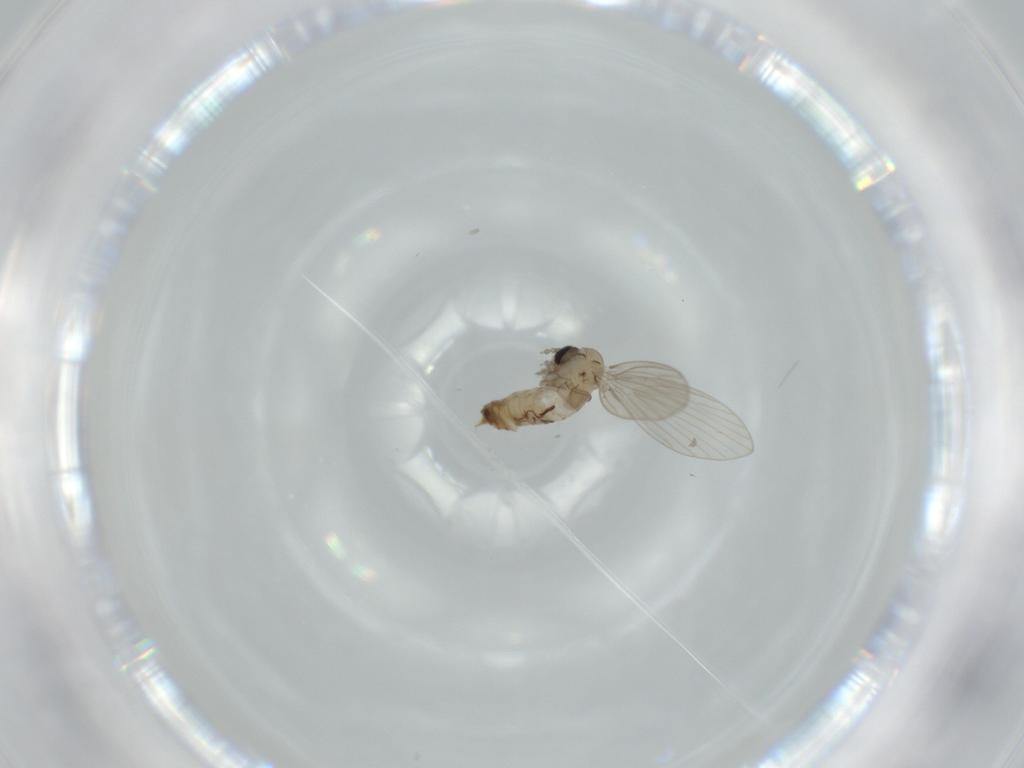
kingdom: Animalia
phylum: Arthropoda
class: Insecta
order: Diptera
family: Psychodidae
